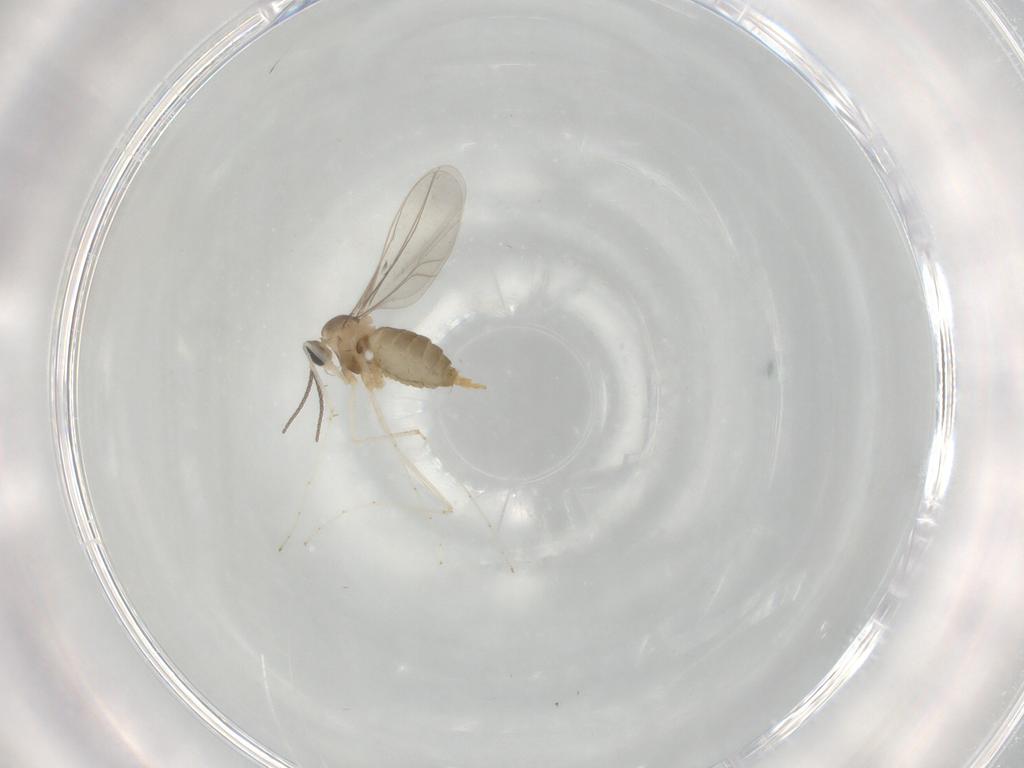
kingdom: Animalia
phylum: Arthropoda
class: Insecta
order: Diptera
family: Cecidomyiidae
